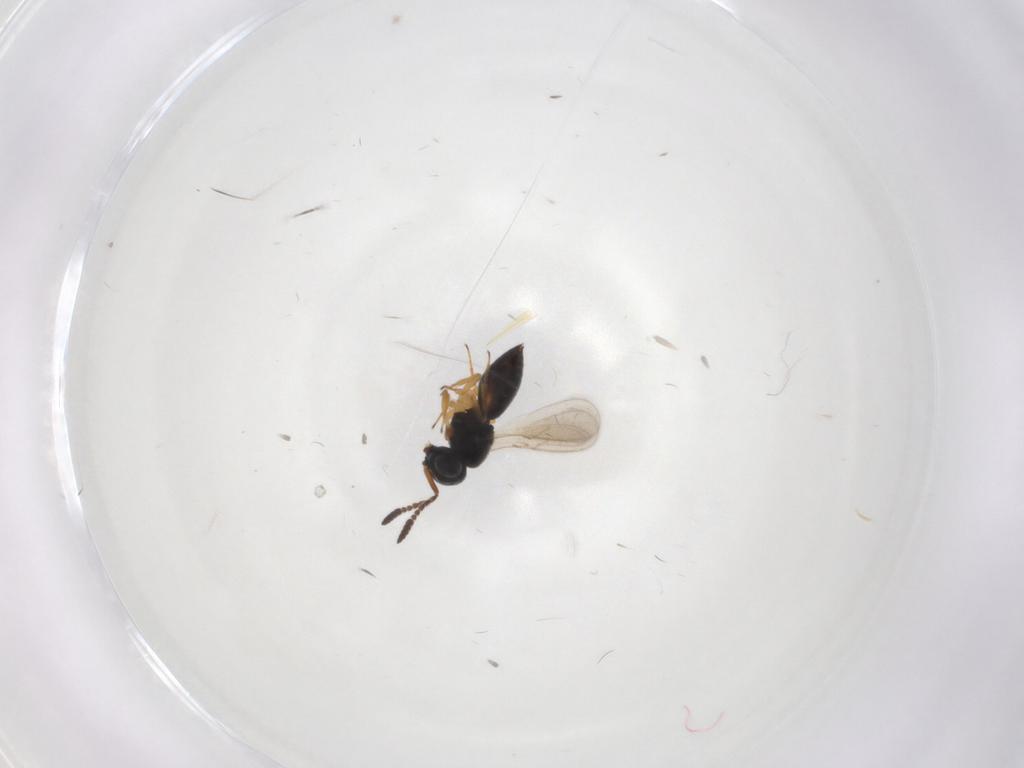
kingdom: Animalia
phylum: Arthropoda
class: Insecta
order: Hymenoptera
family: Scelionidae
